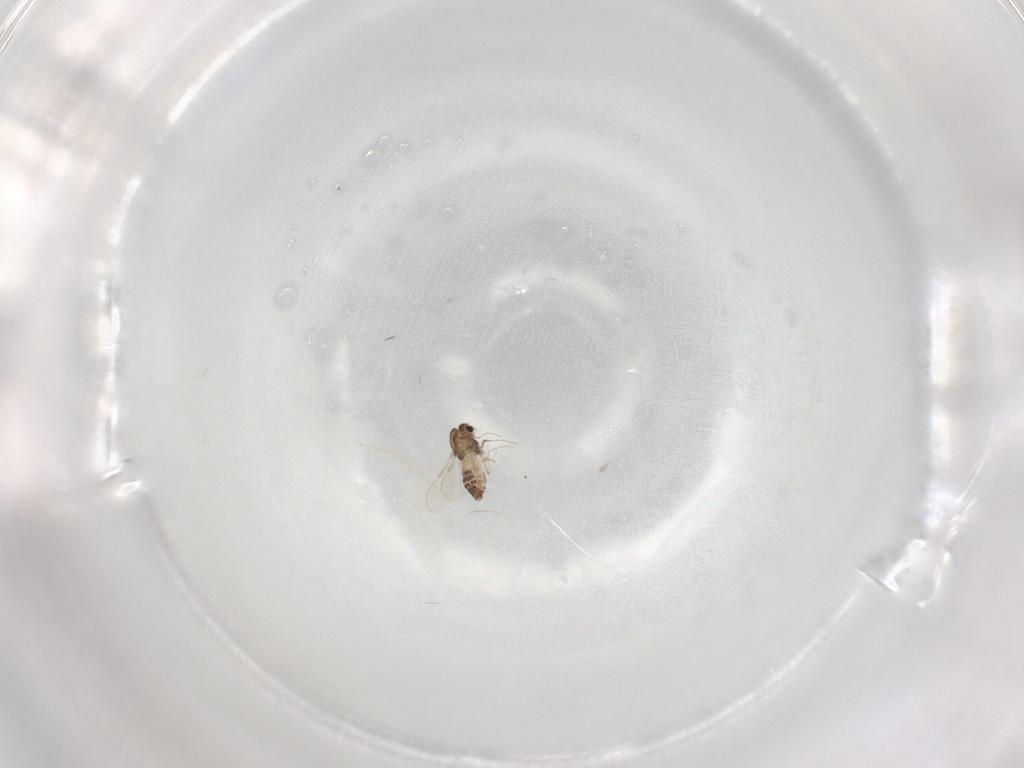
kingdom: Animalia
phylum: Arthropoda
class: Insecta
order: Diptera
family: Chironomidae
